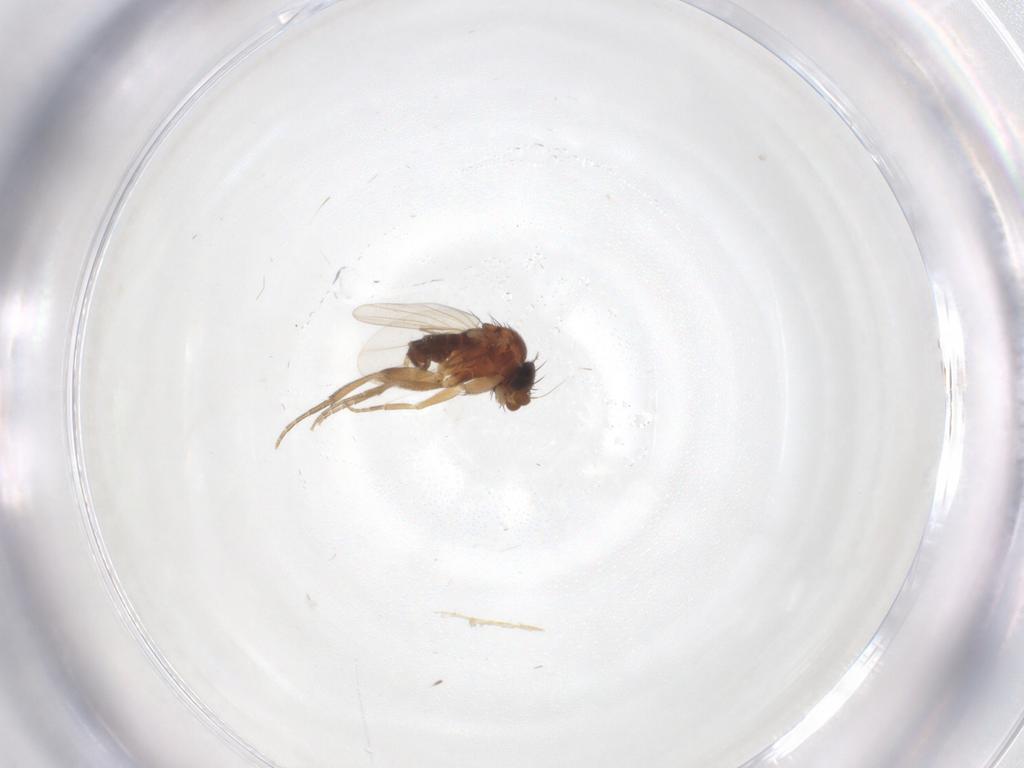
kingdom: Animalia
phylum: Arthropoda
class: Insecta
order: Diptera
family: Phoridae
